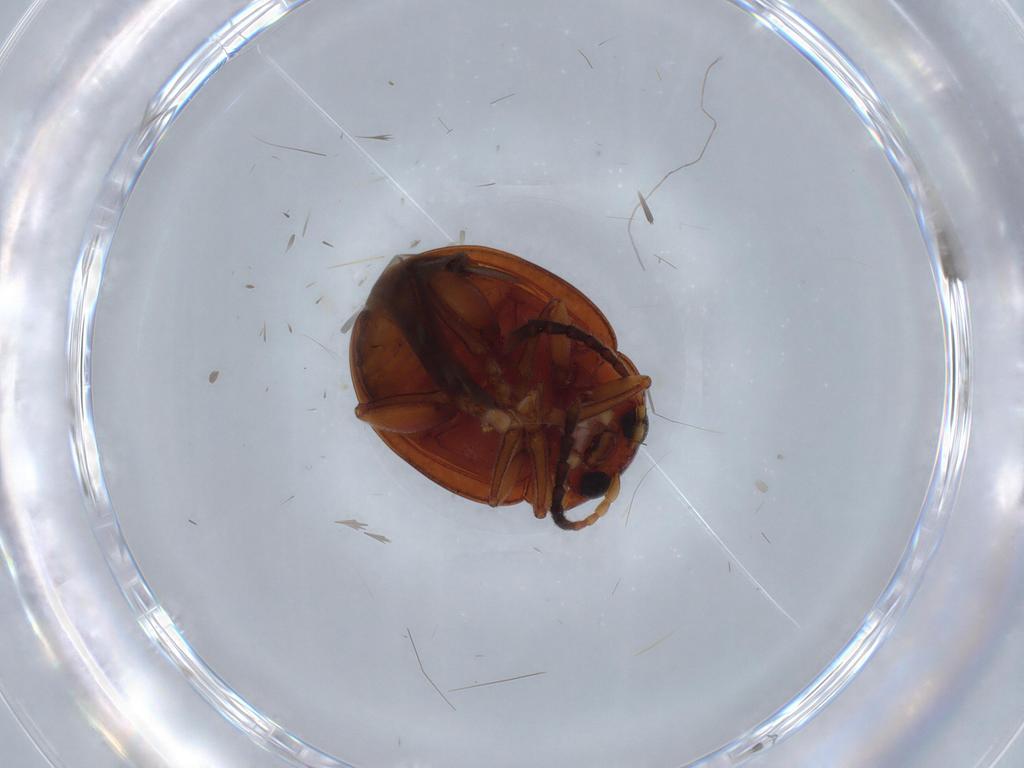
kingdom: Animalia
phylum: Arthropoda
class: Insecta
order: Coleoptera
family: Chrysomelidae
